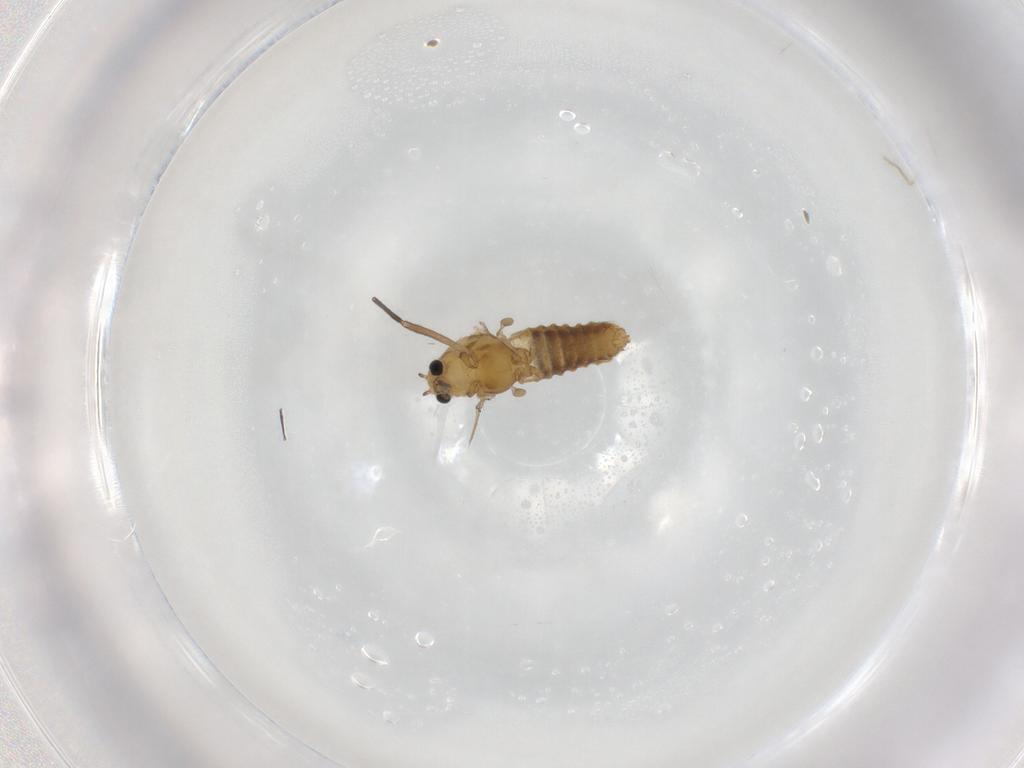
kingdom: Animalia
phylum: Arthropoda
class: Insecta
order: Diptera
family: Chironomidae
